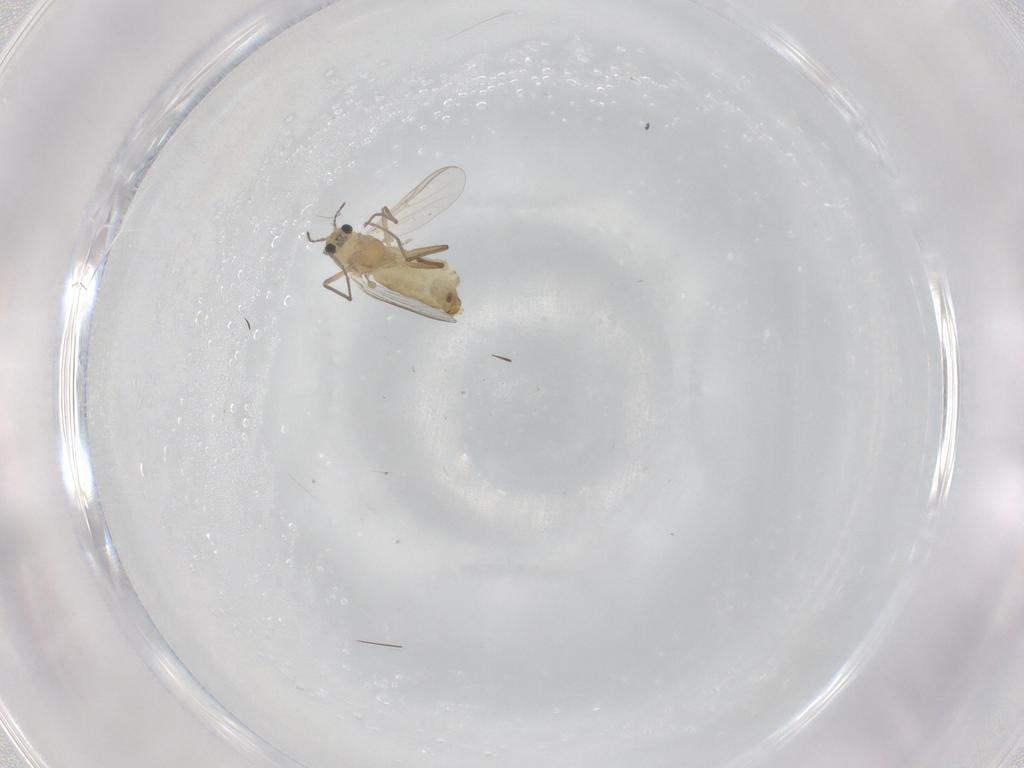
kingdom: Animalia
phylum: Arthropoda
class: Insecta
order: Diptera
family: Chironomidae
